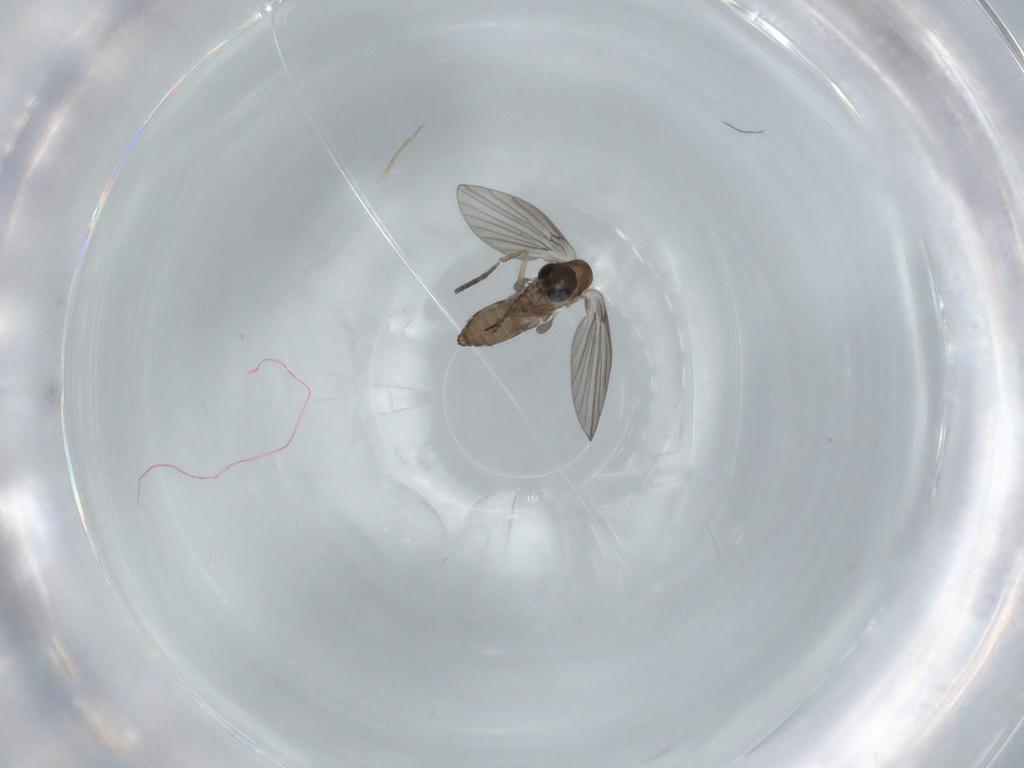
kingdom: Animalia
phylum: Arthropoda
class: Insecta
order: Diptera
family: Psychodidae
